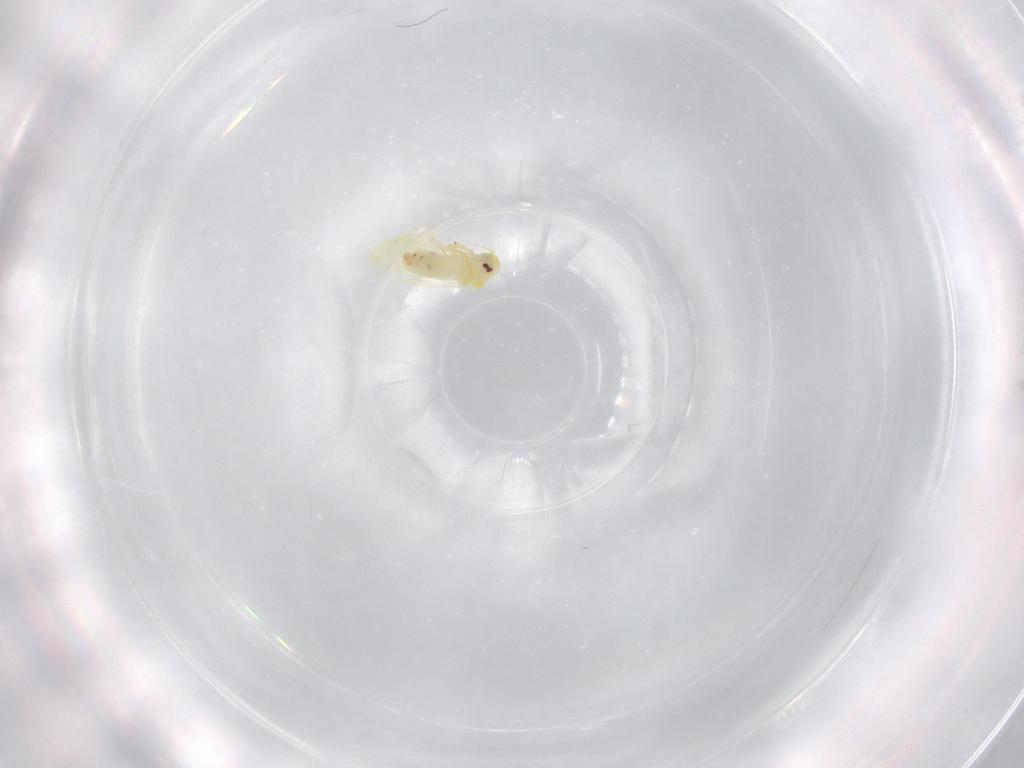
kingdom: Animalia
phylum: Arthropoda
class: Insecta
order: Hemiptera
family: Aleyrodidae
